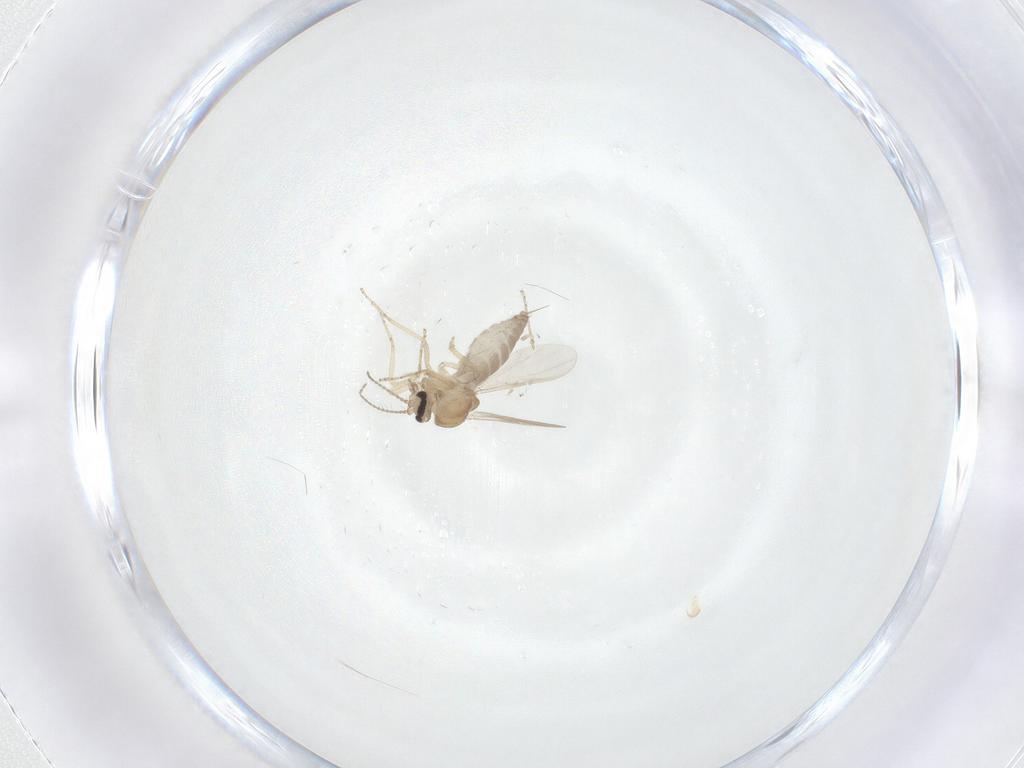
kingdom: Animalia
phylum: Arthropoda
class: Insecta
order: Diptera
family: Ceratopogonidae
